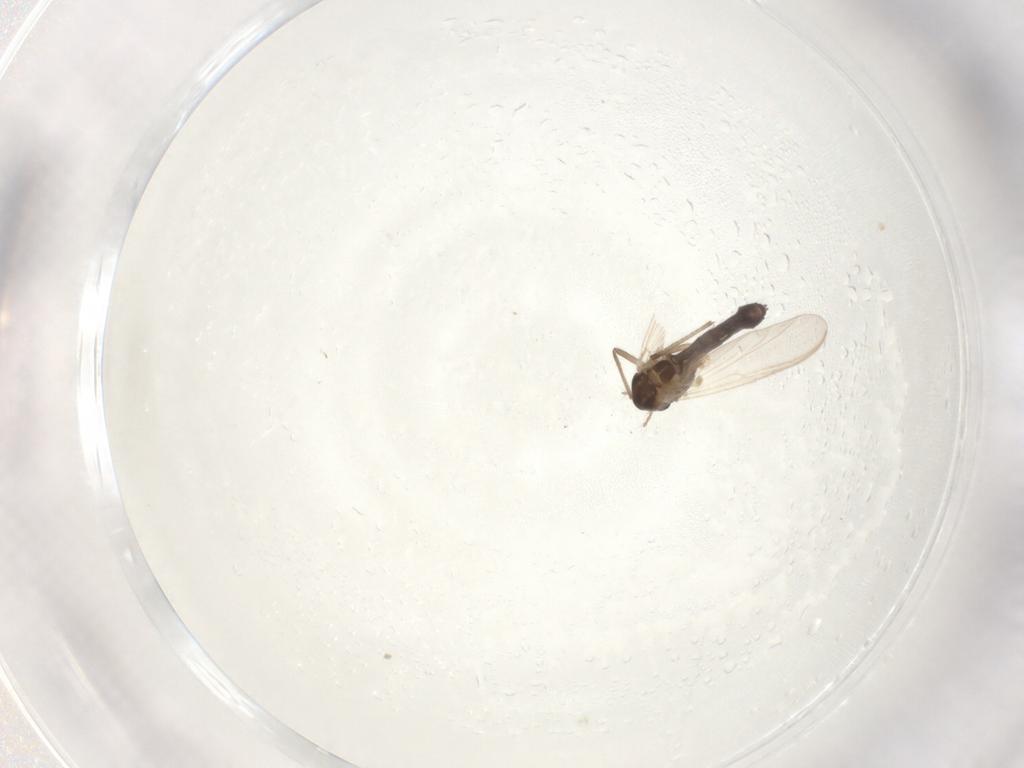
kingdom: Animalia
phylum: Arthropoda
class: Insecta
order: Diptera
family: Chironomidae
